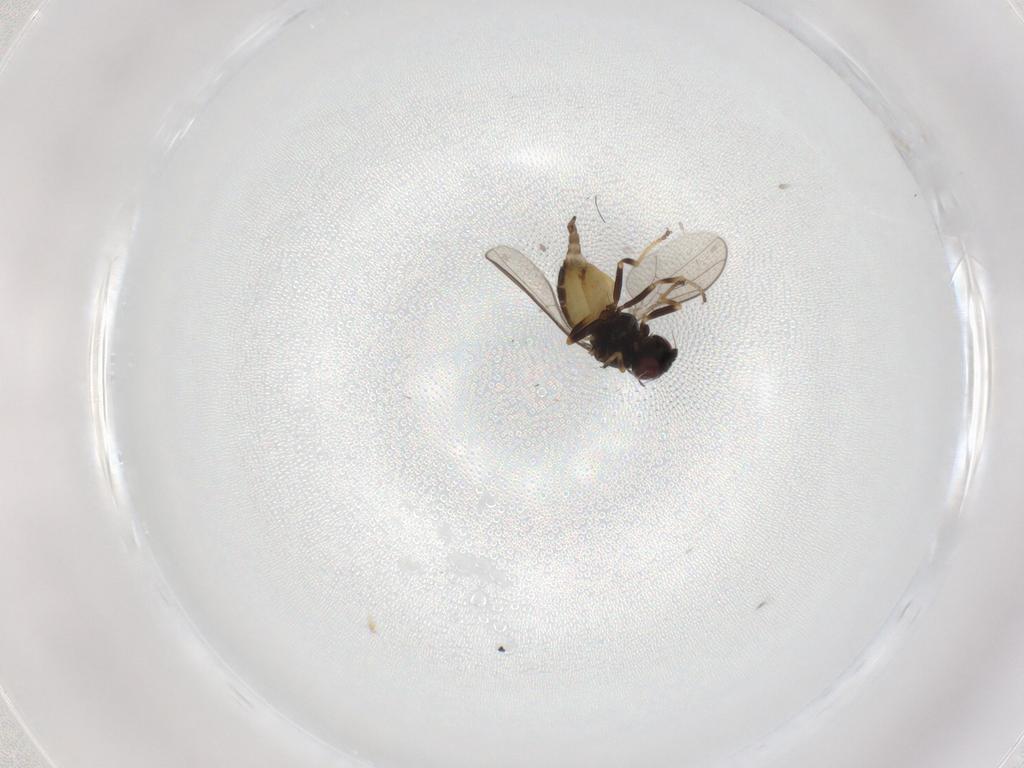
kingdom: Animalia
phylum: Arthropoda
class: Insecta
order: Diptera
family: Chloropidae
